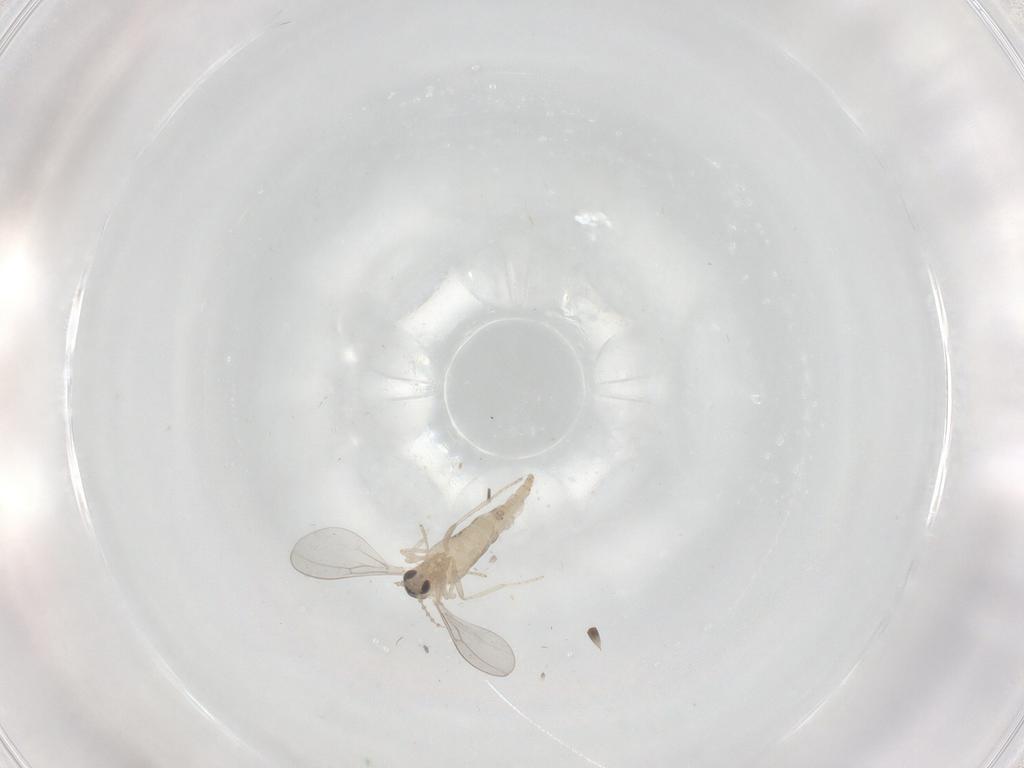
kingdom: Animalia
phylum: Arthropoda
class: Insecta
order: Diptera
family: Cecidomyiidae
